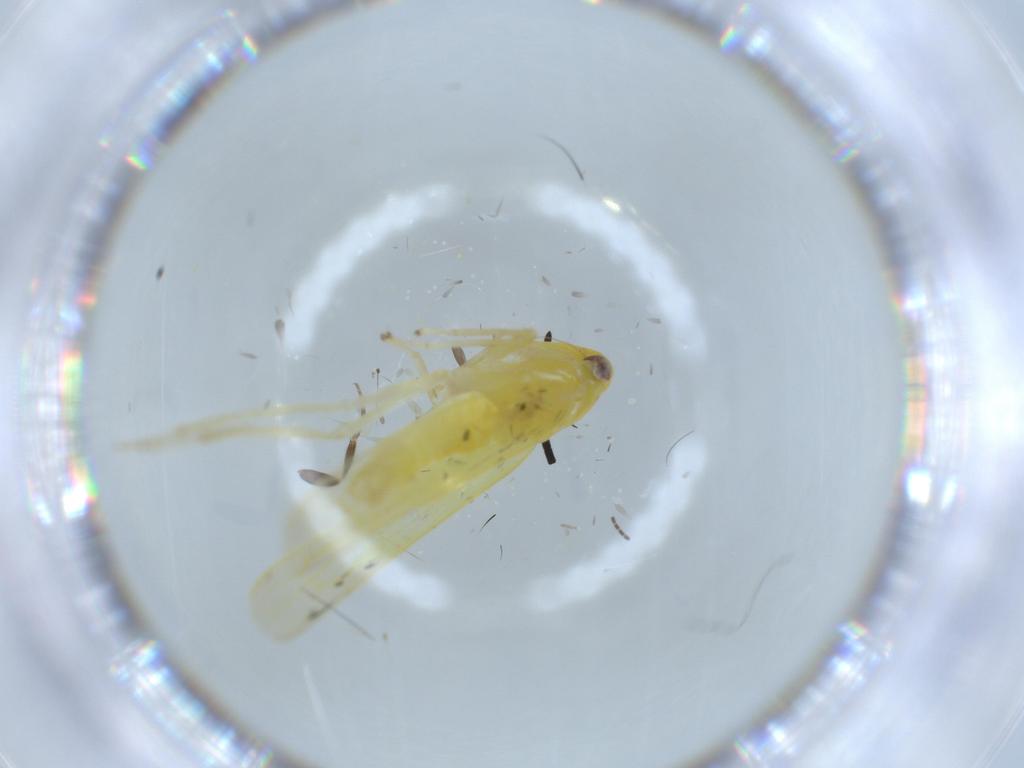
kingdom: Animalia
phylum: Arthropoda
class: Insecta
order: Hemiptera
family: Cicadellidae
